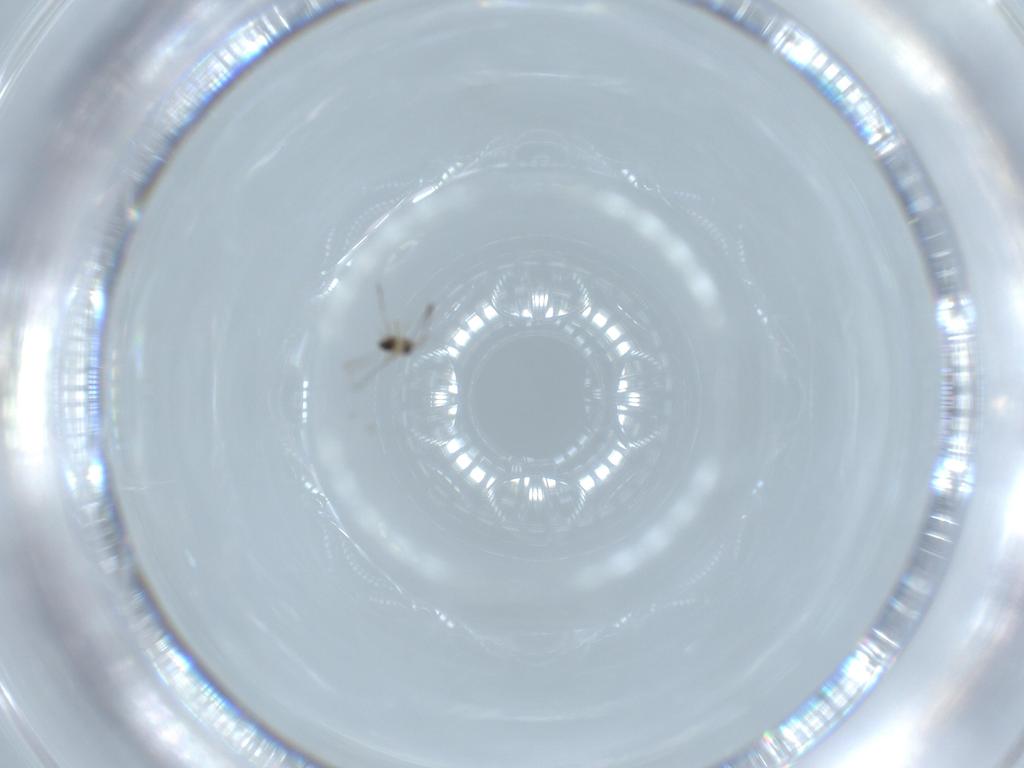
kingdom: Animalia
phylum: Arthropoda
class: Insecta
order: Hymenoptera
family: Mymaridae
